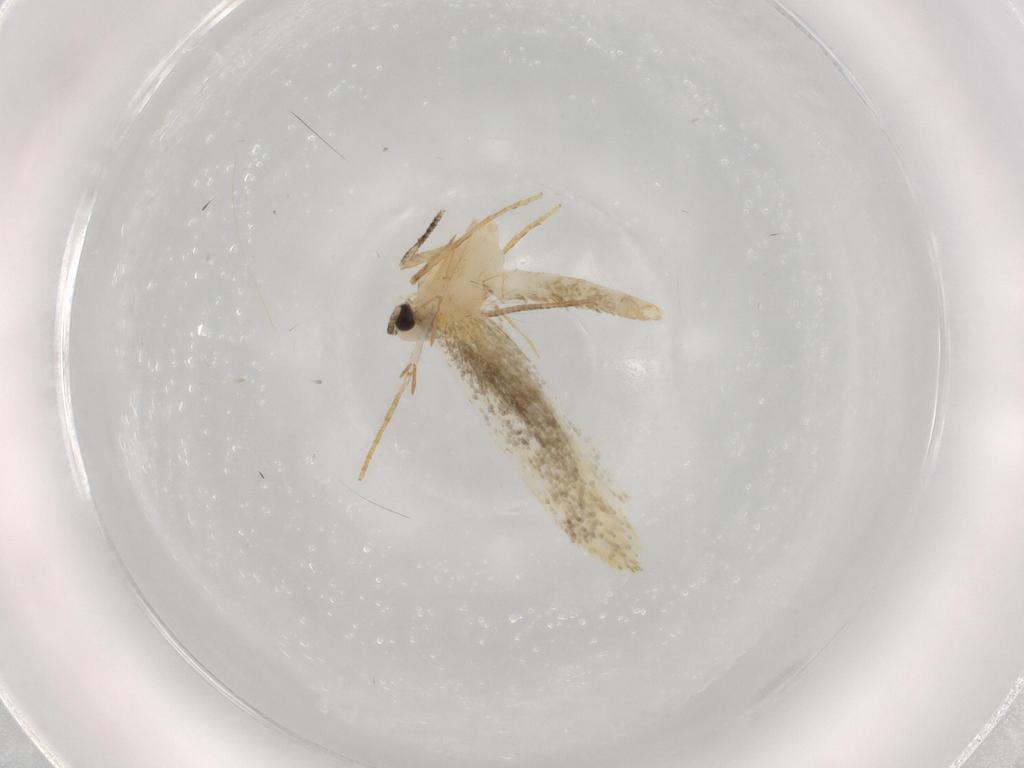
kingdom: Animalia
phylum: Arthropoda
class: Insecta
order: Lepidoptera
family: Tineidae
